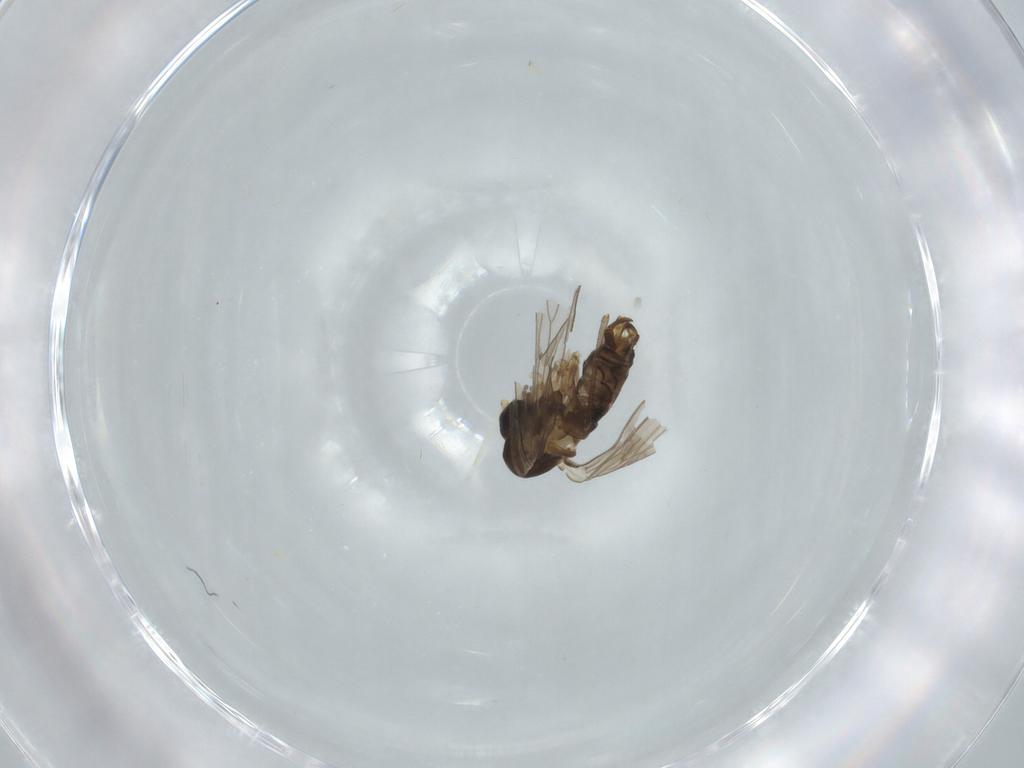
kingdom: Animalia
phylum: Arthropoda
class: Insecta
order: Diptera
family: Agromyzidae
